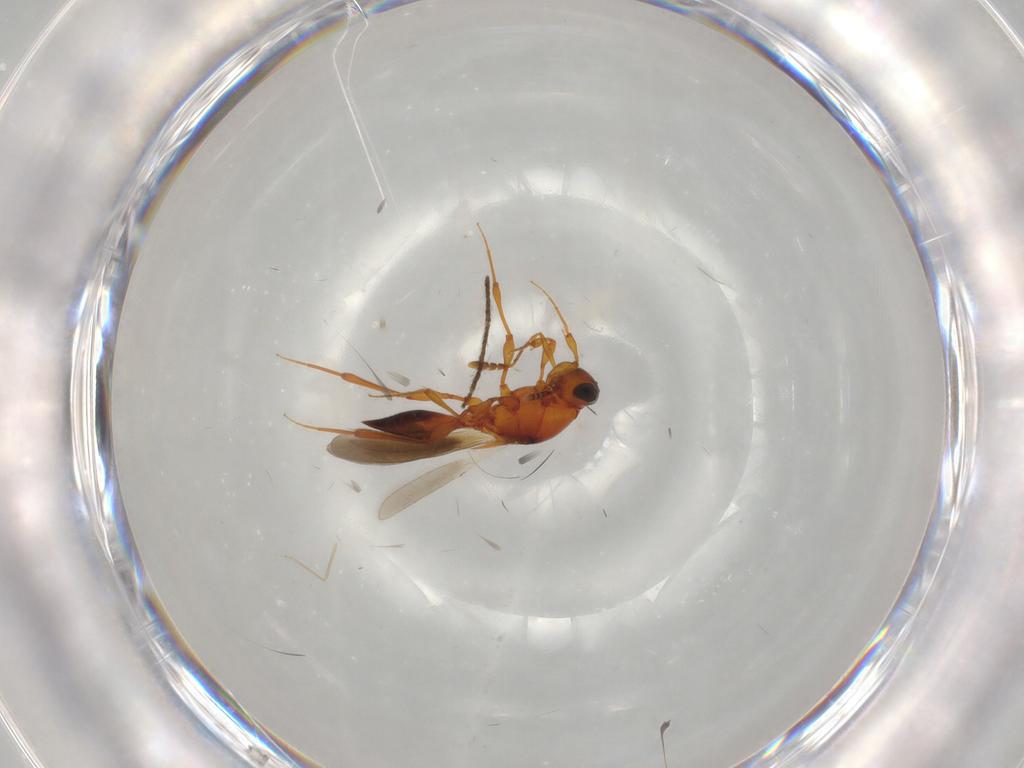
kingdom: Animalia
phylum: Arthropoda
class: Insecta
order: Hymenoptera
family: Platygastridae
